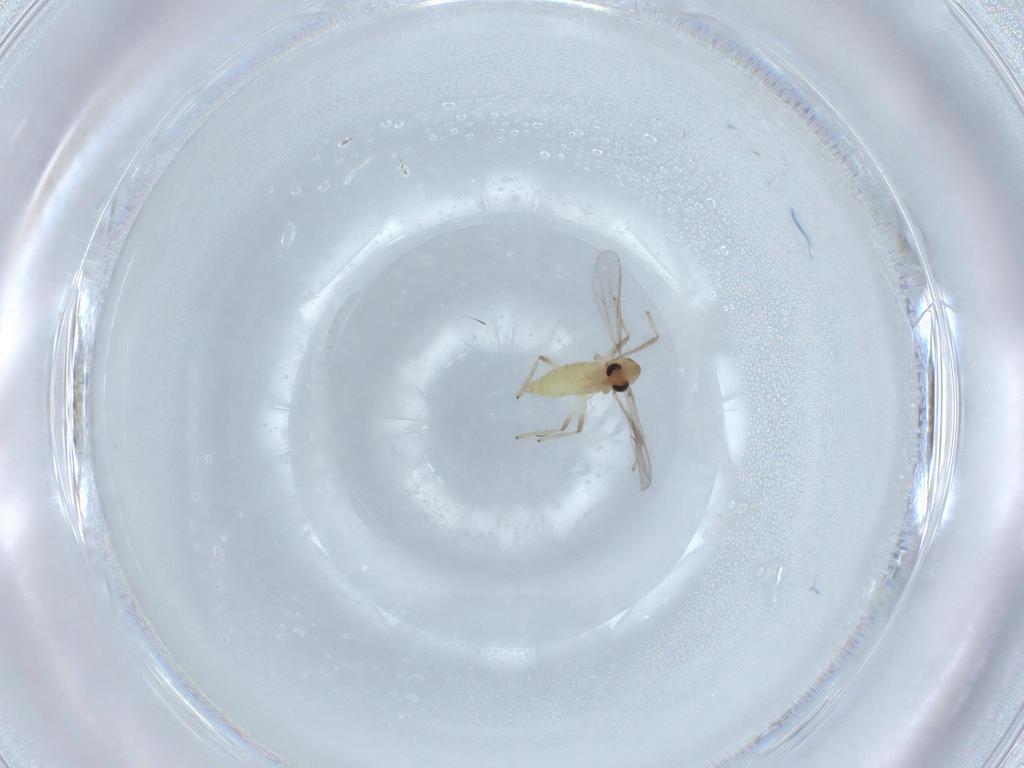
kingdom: Animalia
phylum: Arthropoda
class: Insecta
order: Diptera
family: Chironomidae
